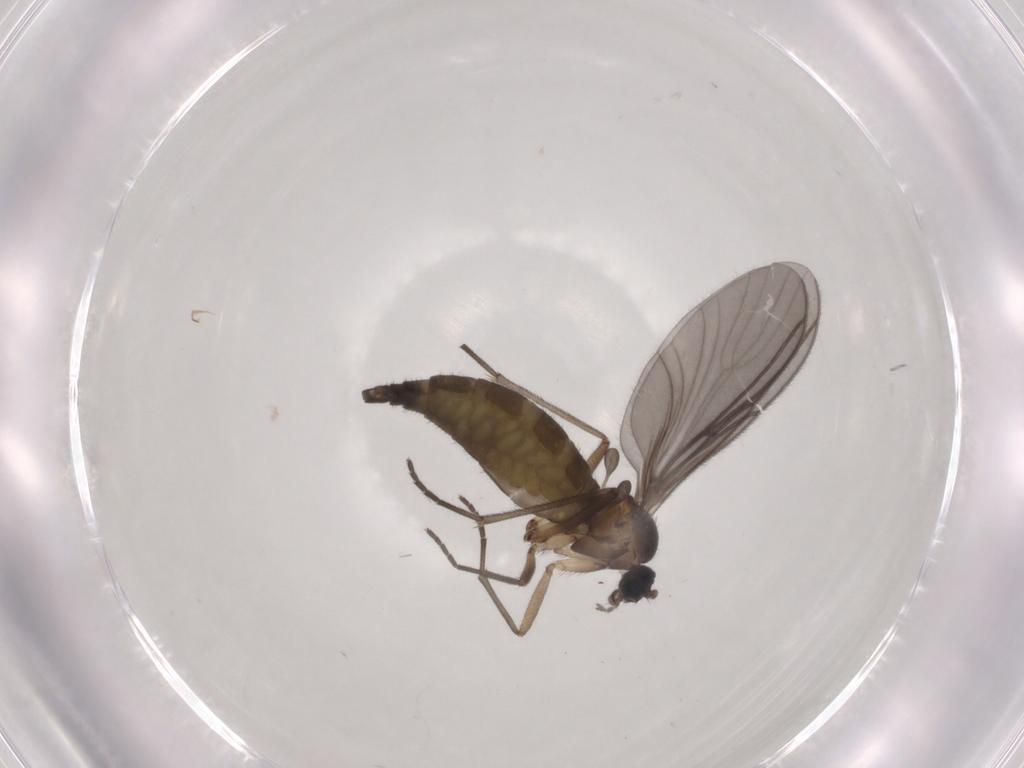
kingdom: Animalia
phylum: Arthropoda
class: Insecta
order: Diptera
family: Sciaridae
